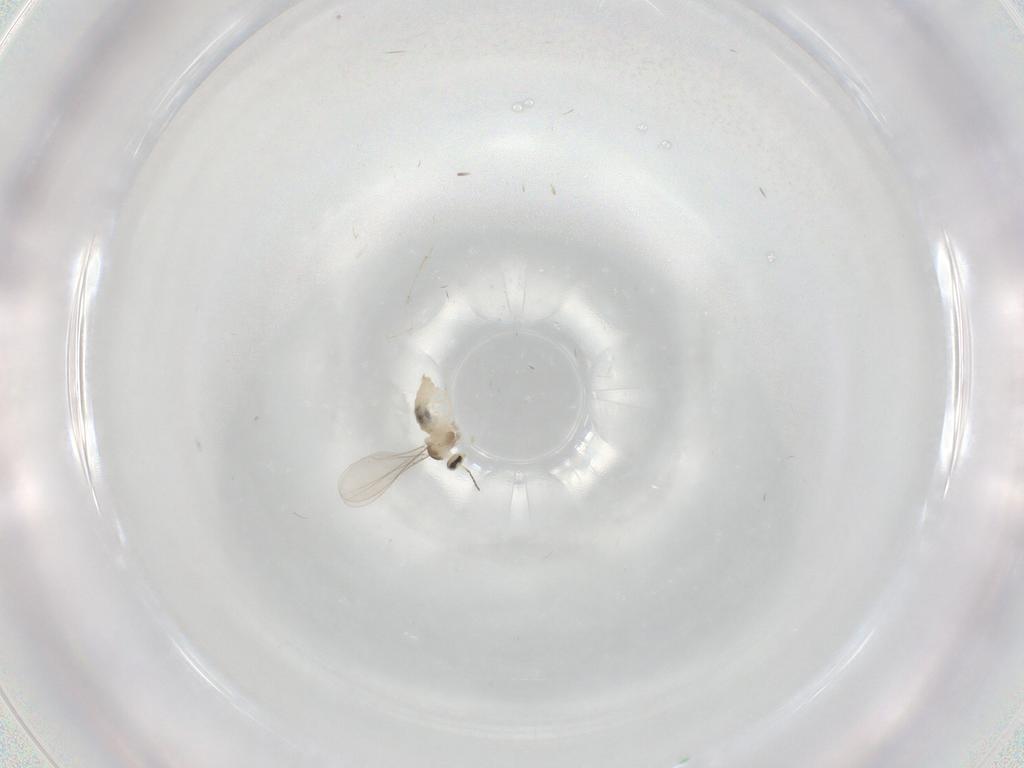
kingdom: Animalia
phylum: Arthropoda
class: Insecta
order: Diptera
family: Cecidomyiidae
